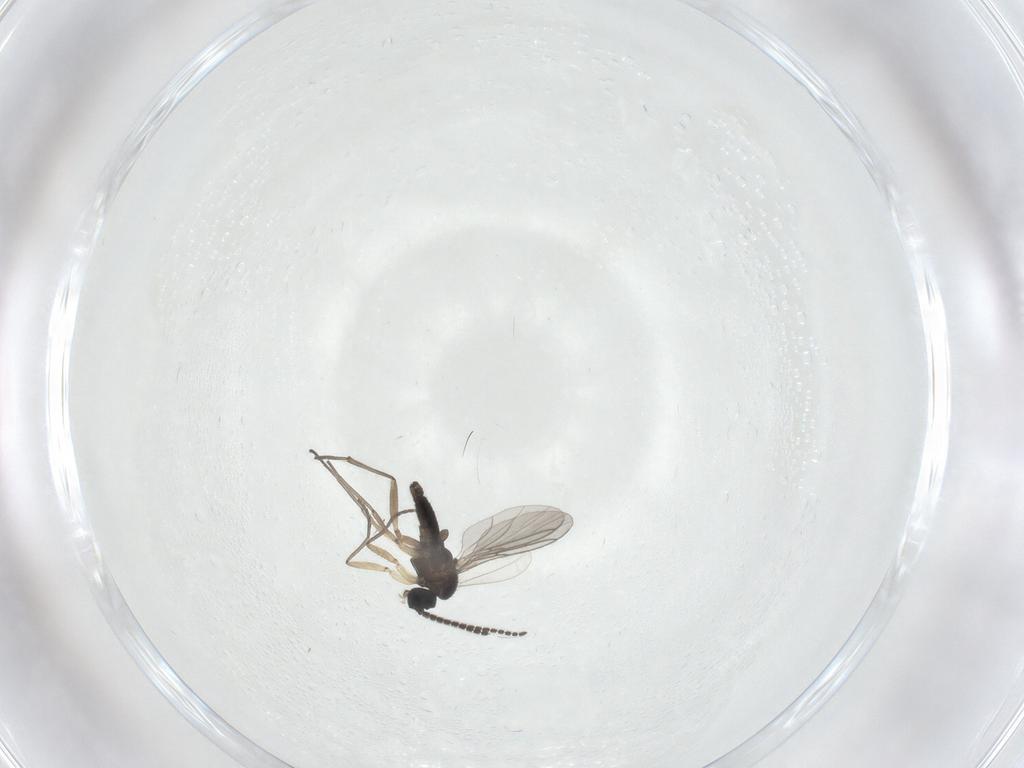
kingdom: Animalia
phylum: Arthropoda
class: Insecta
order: Diptera
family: Sciaridae
